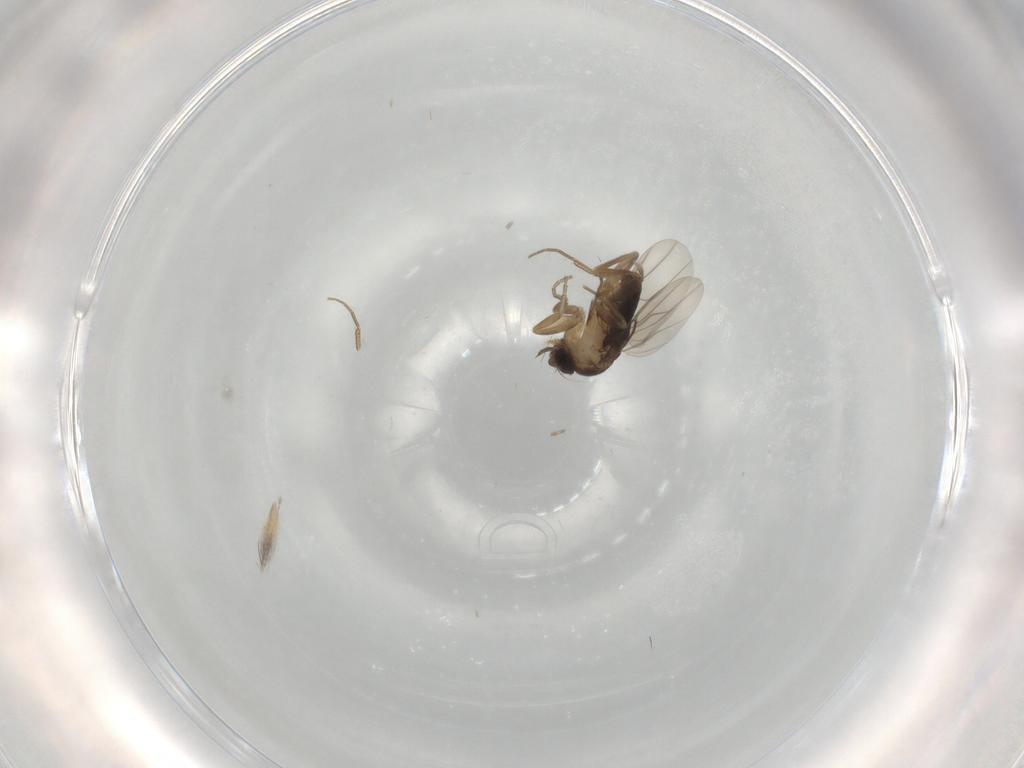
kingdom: Animalia
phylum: Arthropoda
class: Insecta
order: Diptera
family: Phoridae
